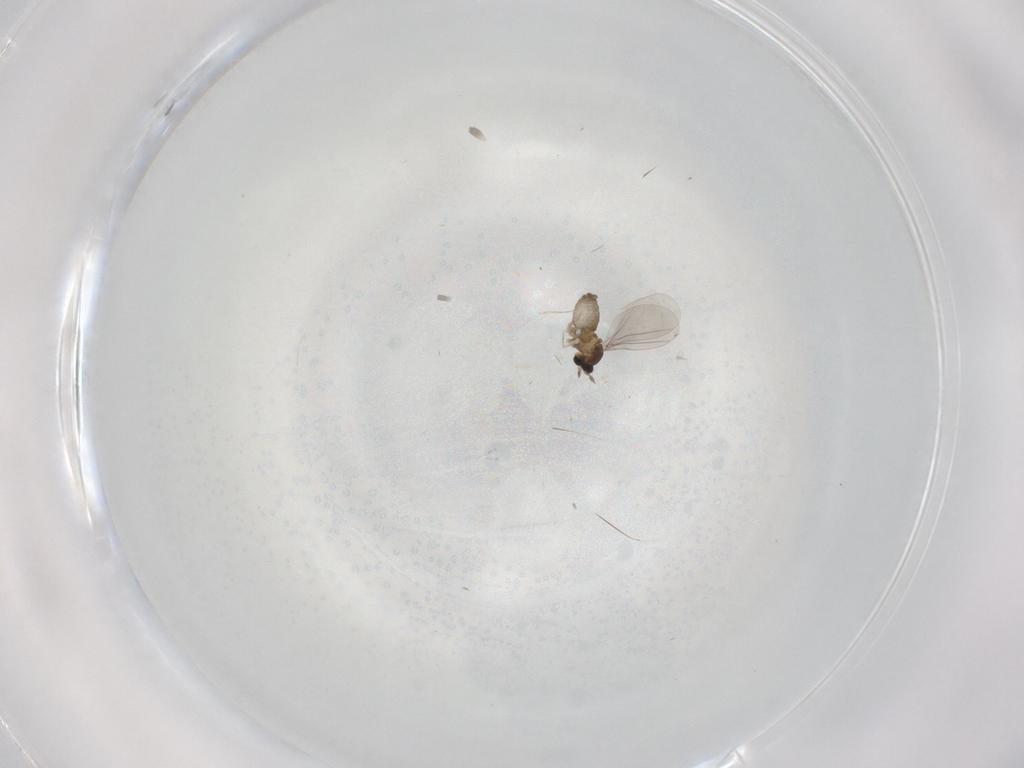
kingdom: Animalia
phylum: Arthropoda
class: Insecta
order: Diptera
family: Cecidomyiidae
